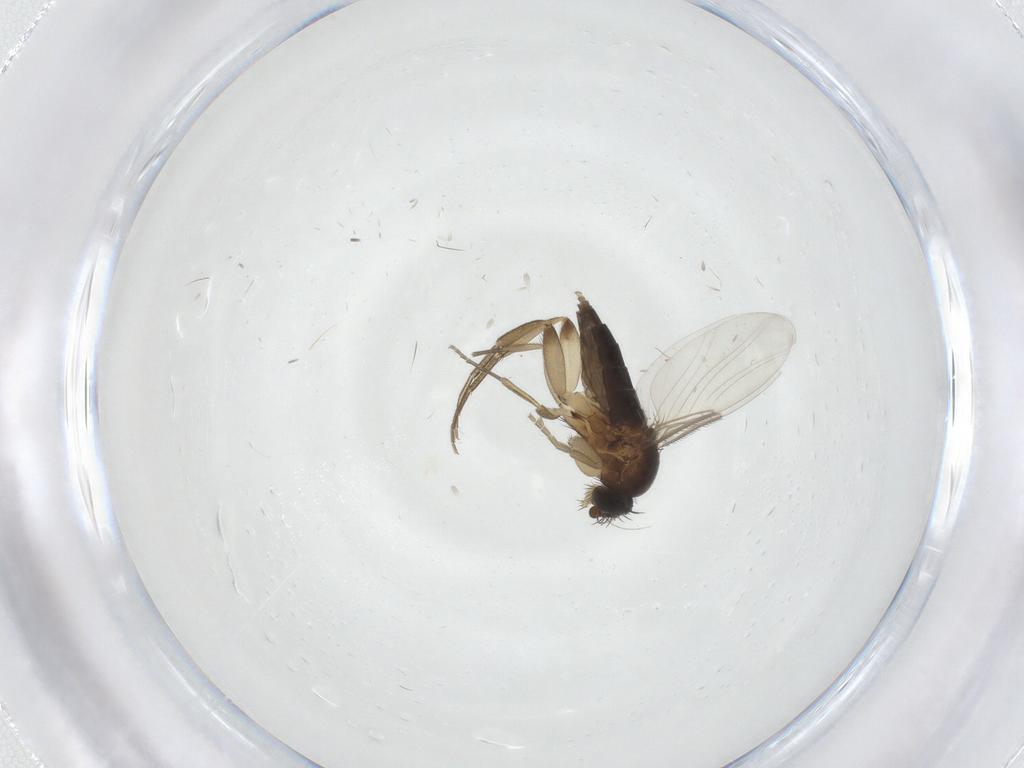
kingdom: Animalia
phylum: Arthropoda
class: Insecta
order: Diptera
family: Phoridae
